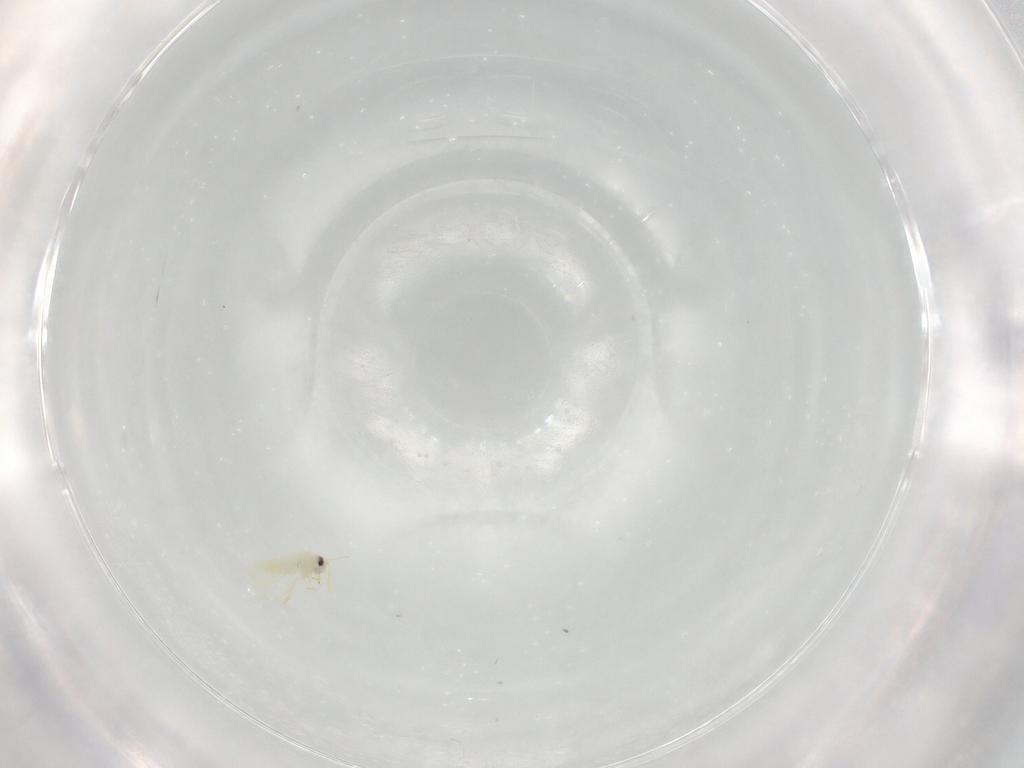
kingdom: Animalia
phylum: Arthropoda
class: Insecta
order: Hemiptera
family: Aleyrodidae
